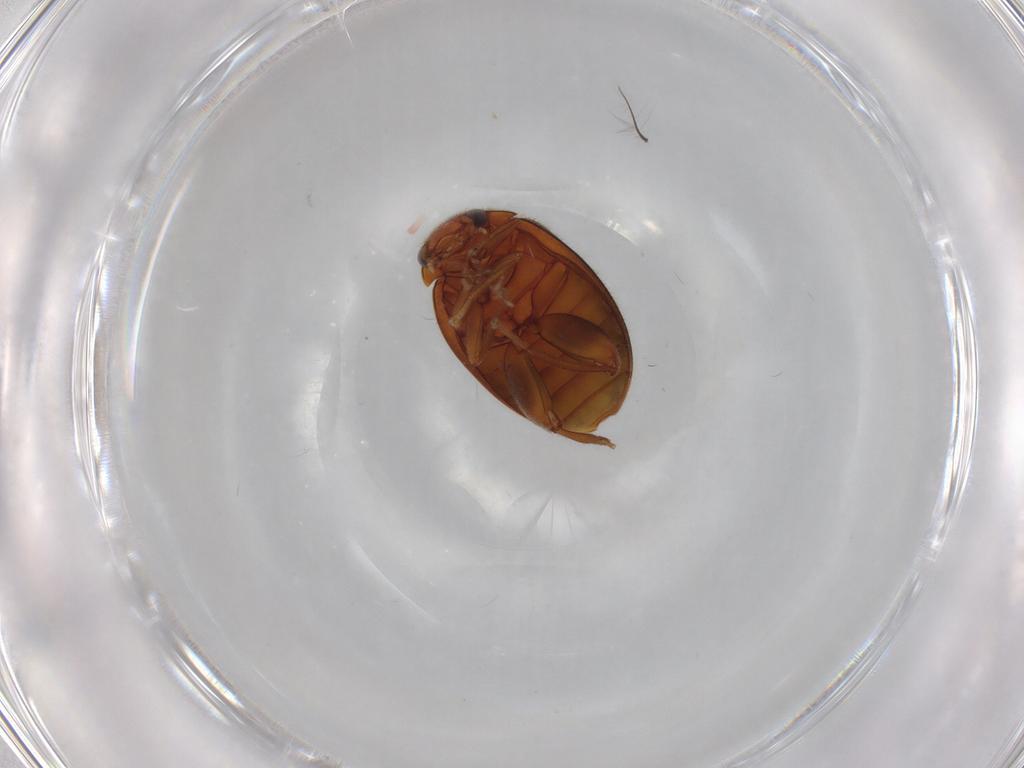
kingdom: Animalia
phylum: Arthropoda
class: Insecta
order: Coleoptera
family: Scirtidae
